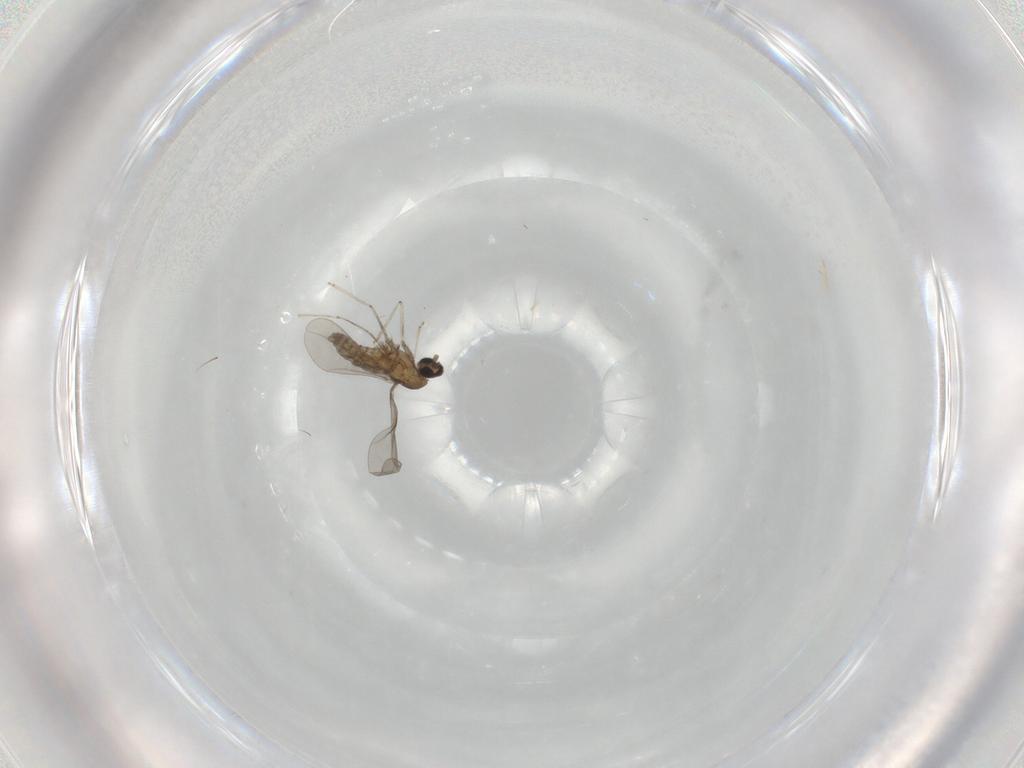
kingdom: Animalia
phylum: Arthropoda
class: Insecta
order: Diptera
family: Cecidomyiidae
